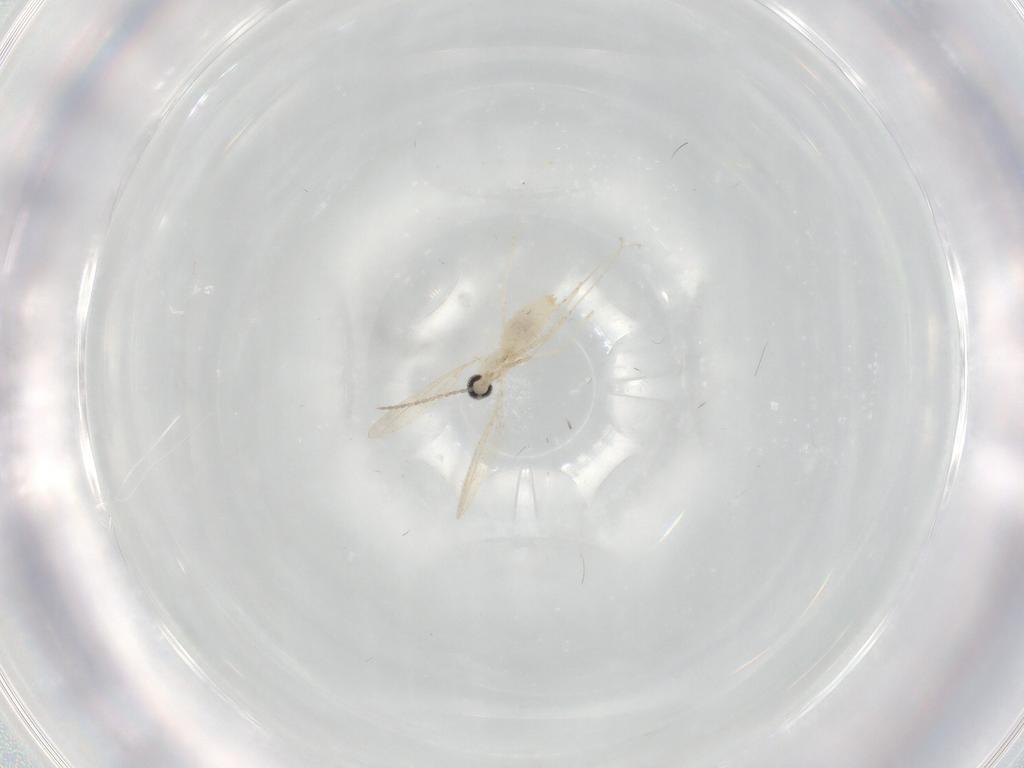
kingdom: Animalia
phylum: Arthropoda
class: Insecta
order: Diptera
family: Cecidomyiidae
